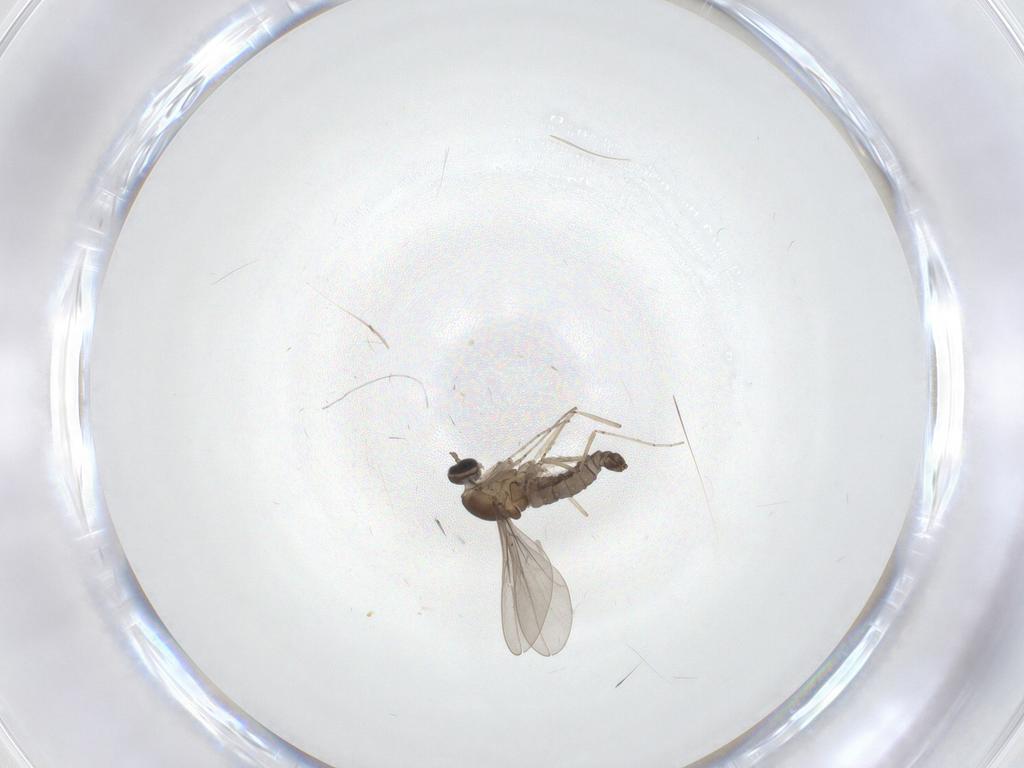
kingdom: Animalia
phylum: Arthropoda
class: Insecta
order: Diptera
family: Cecidomyiidae
